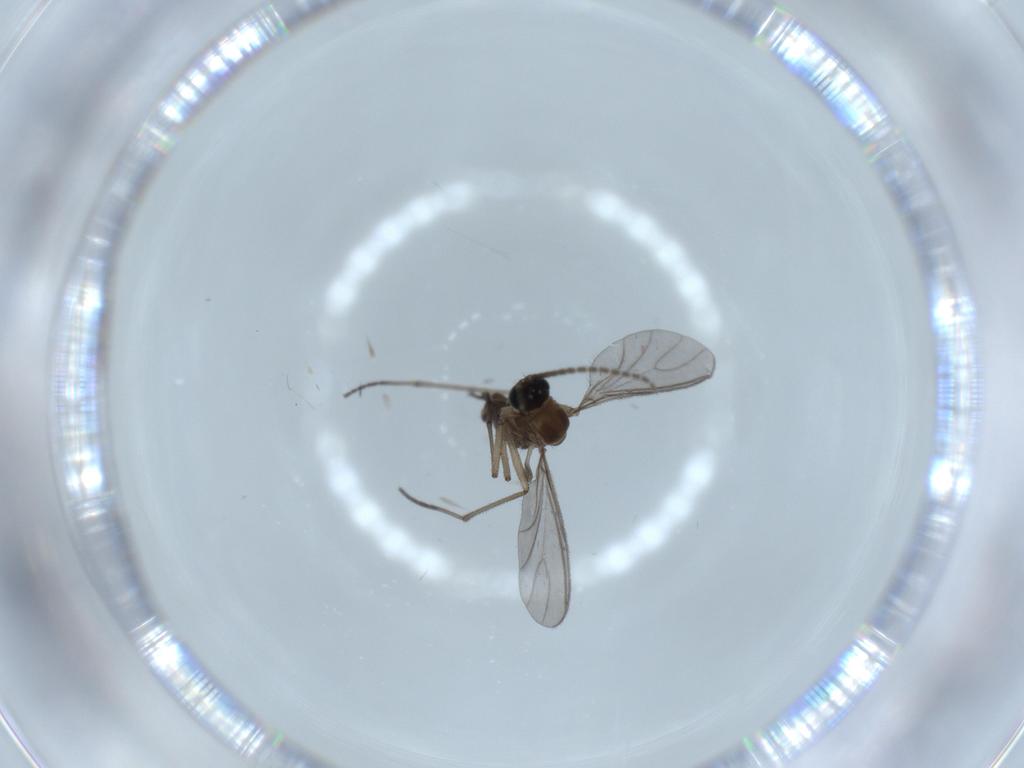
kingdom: Animalia
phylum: Arthropoda
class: Insecta
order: Diptera
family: Sciaridae
